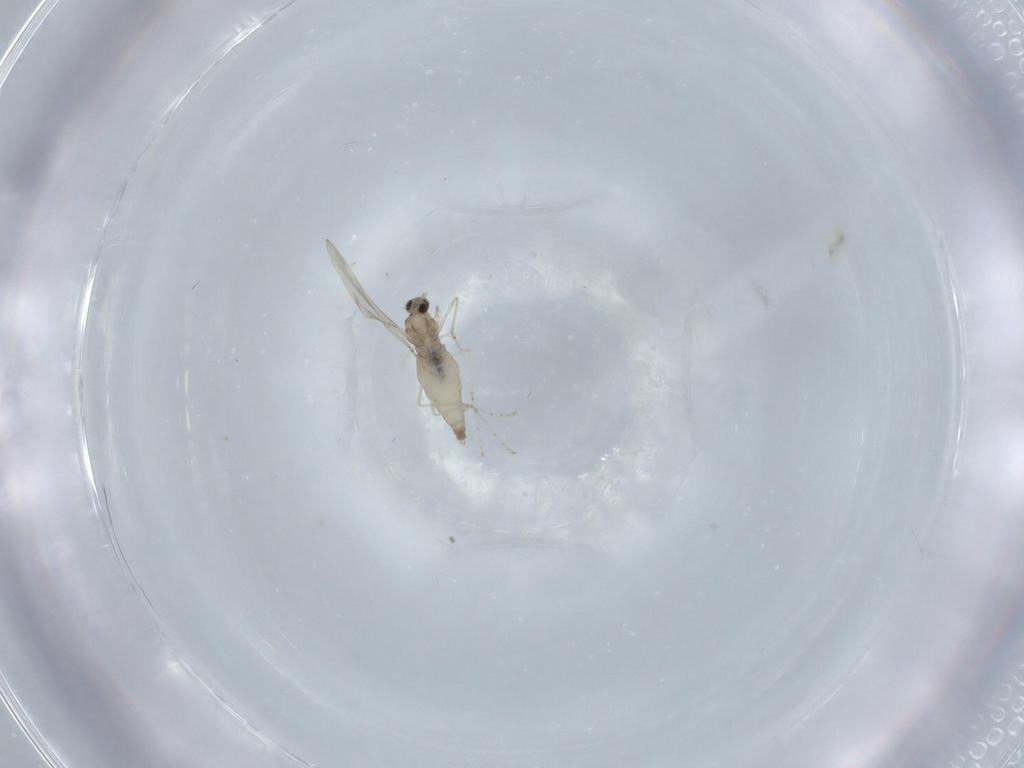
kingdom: Animalia
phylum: Arthropoda
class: Insecta
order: Diptera
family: Cecidomyiidae
